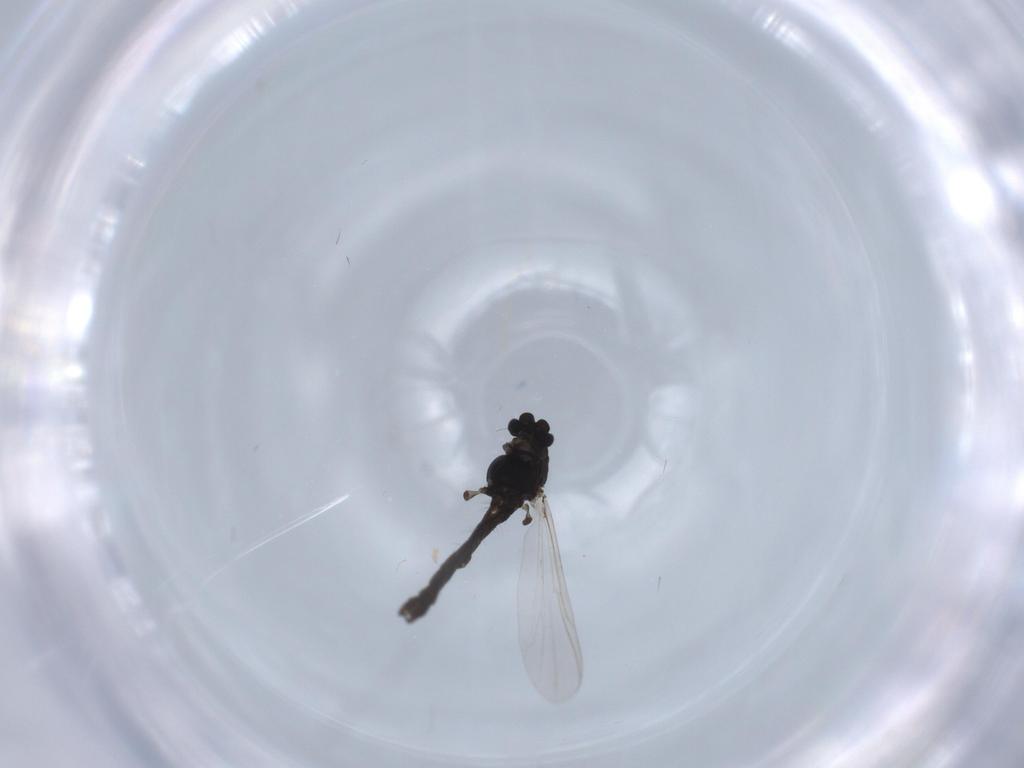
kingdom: Animalia
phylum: Arthropoda
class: Insecta
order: Diptera
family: Chironomidae
